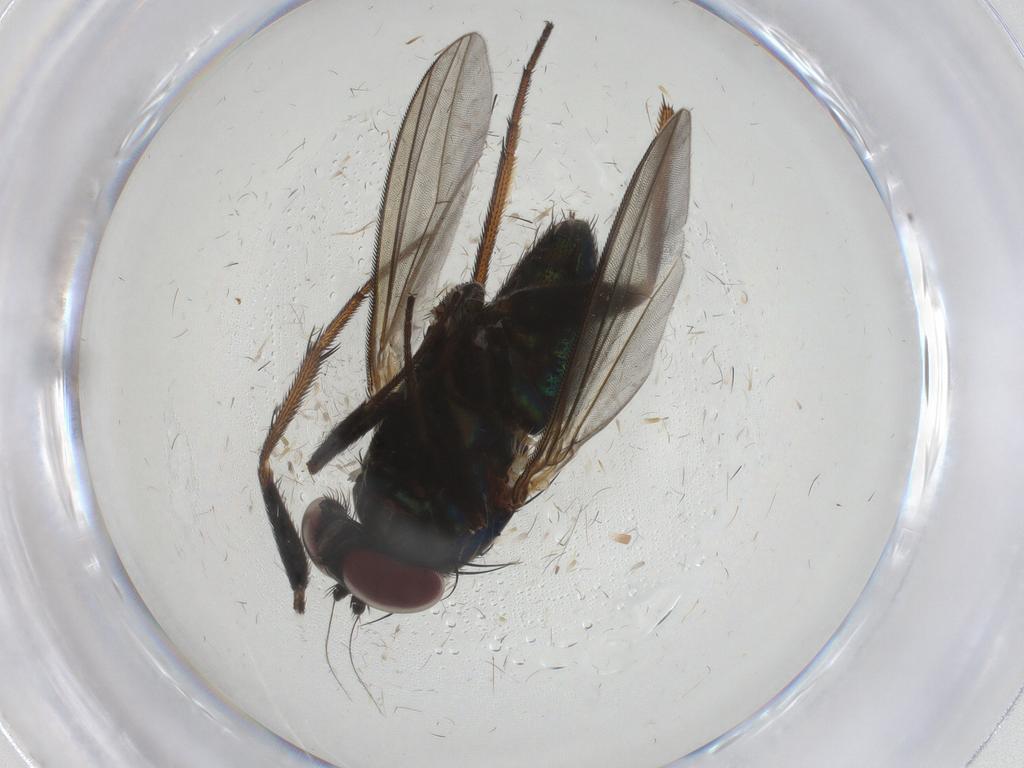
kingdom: Animalia
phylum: Arthropoda
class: Insecta
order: Diptera
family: Dolichopodidae
